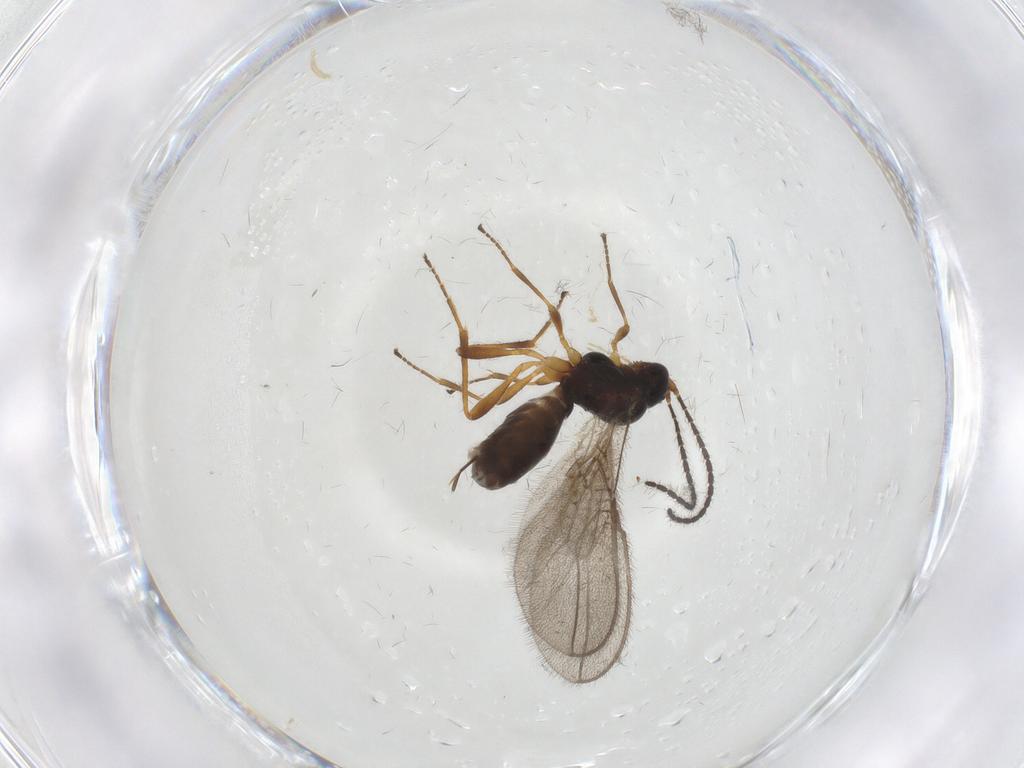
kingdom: Animalia
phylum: Arthropoda
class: Insecta
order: Hymenoptera
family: Braconidae
